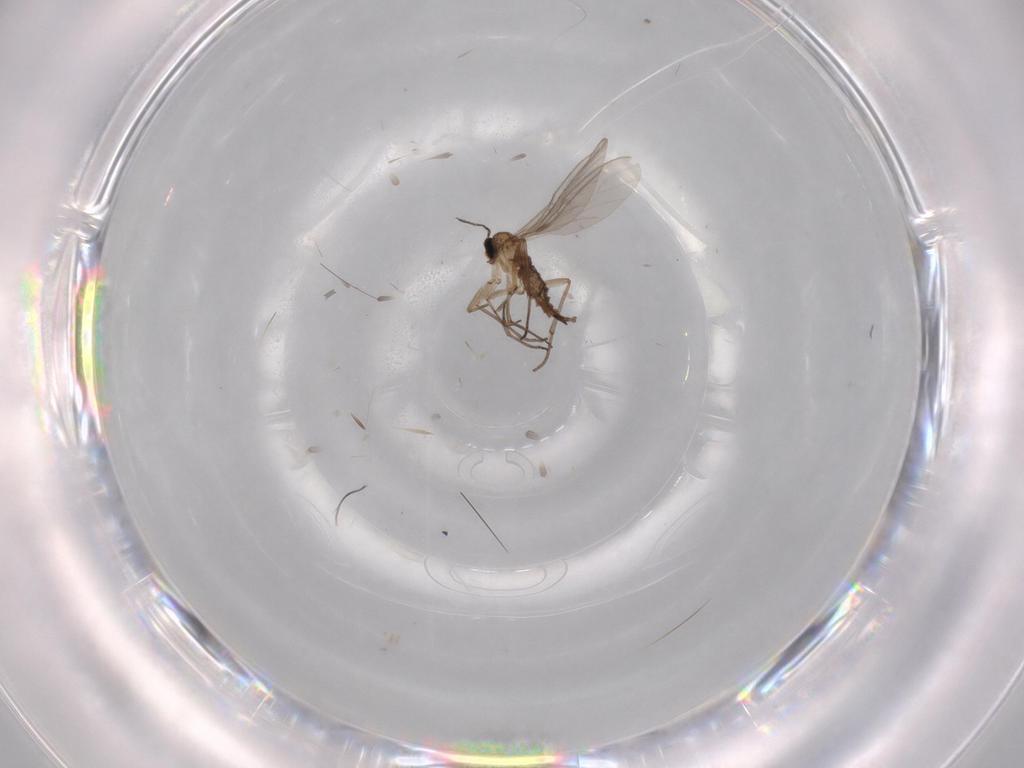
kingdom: Animalia
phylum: Arthropoda
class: Insecta
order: Diptera
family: Sciaridae
